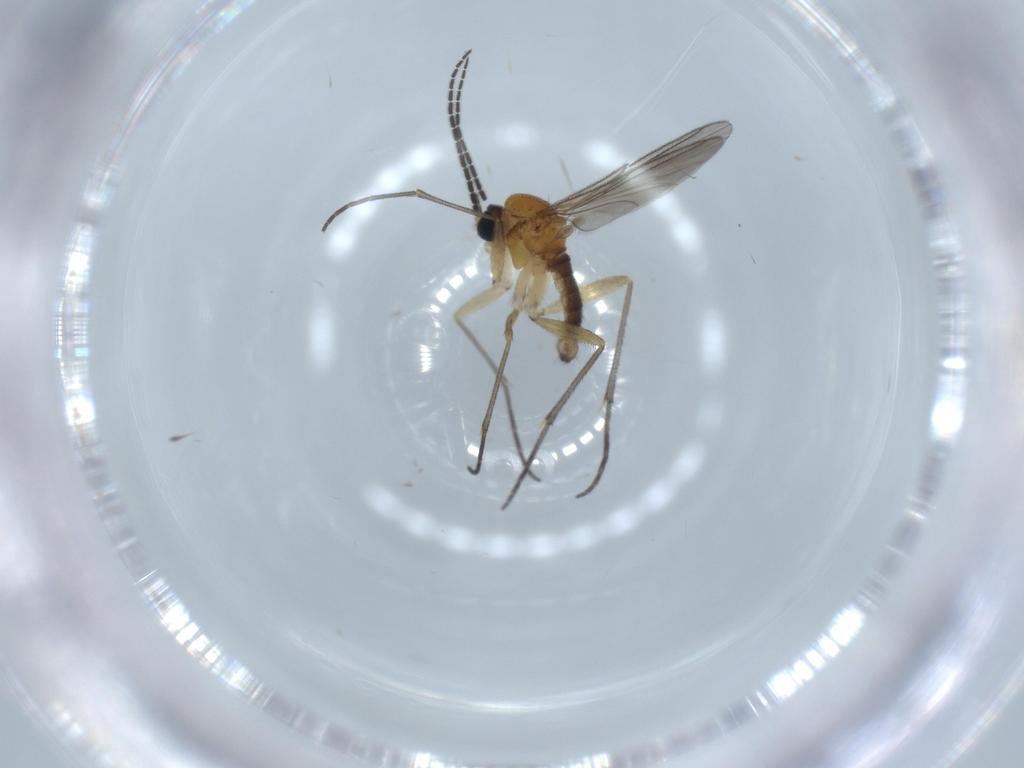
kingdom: Animalia
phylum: Arthropoda
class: Insecta
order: Diptera
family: Sciaridae
